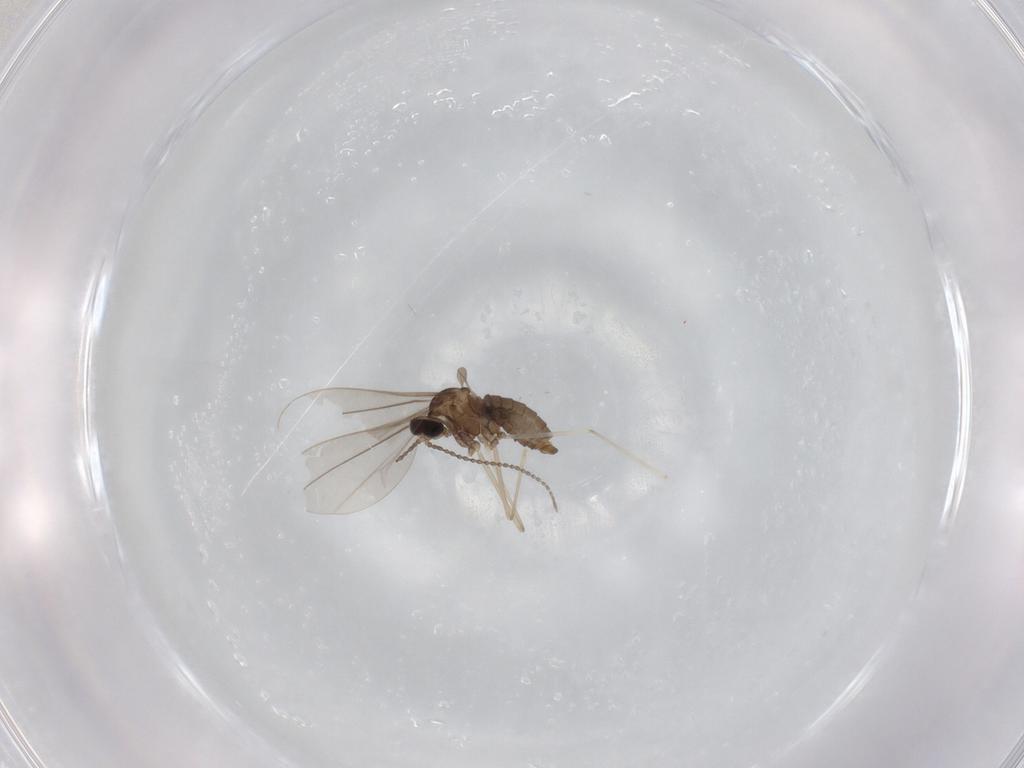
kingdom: Animalia
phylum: Arthropoda
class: Insecta
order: Diptera
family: Cecidomyiidae
